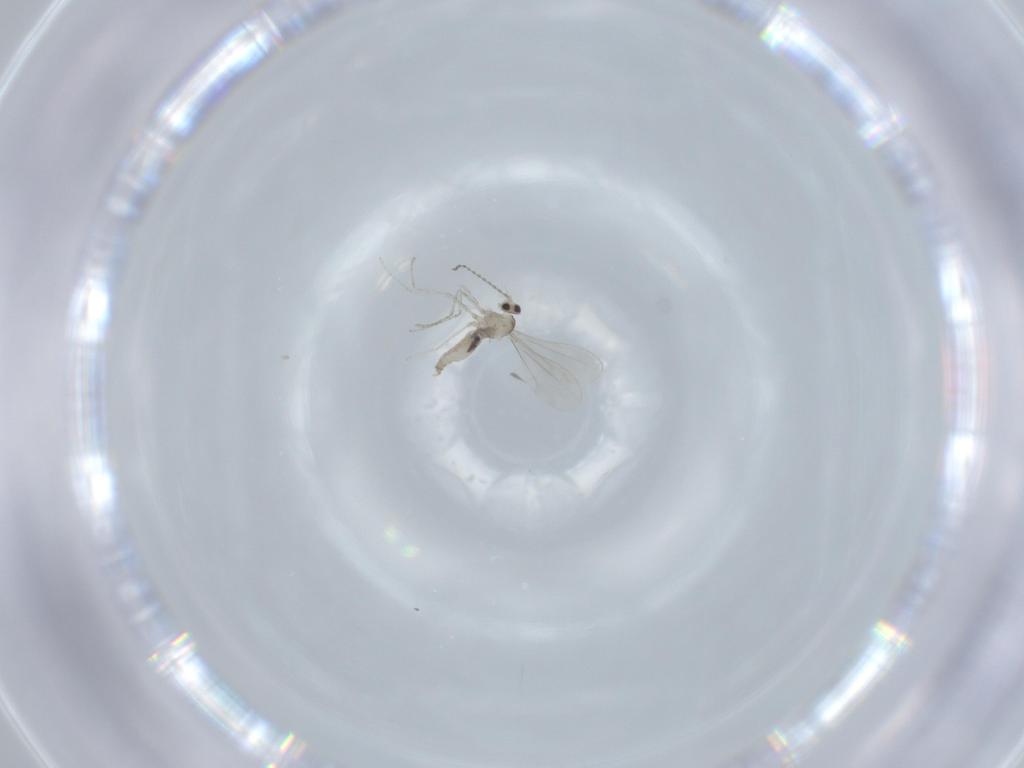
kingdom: Animalia
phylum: Arthropoda
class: Insecta
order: Diptera
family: Cecidomyiidae
